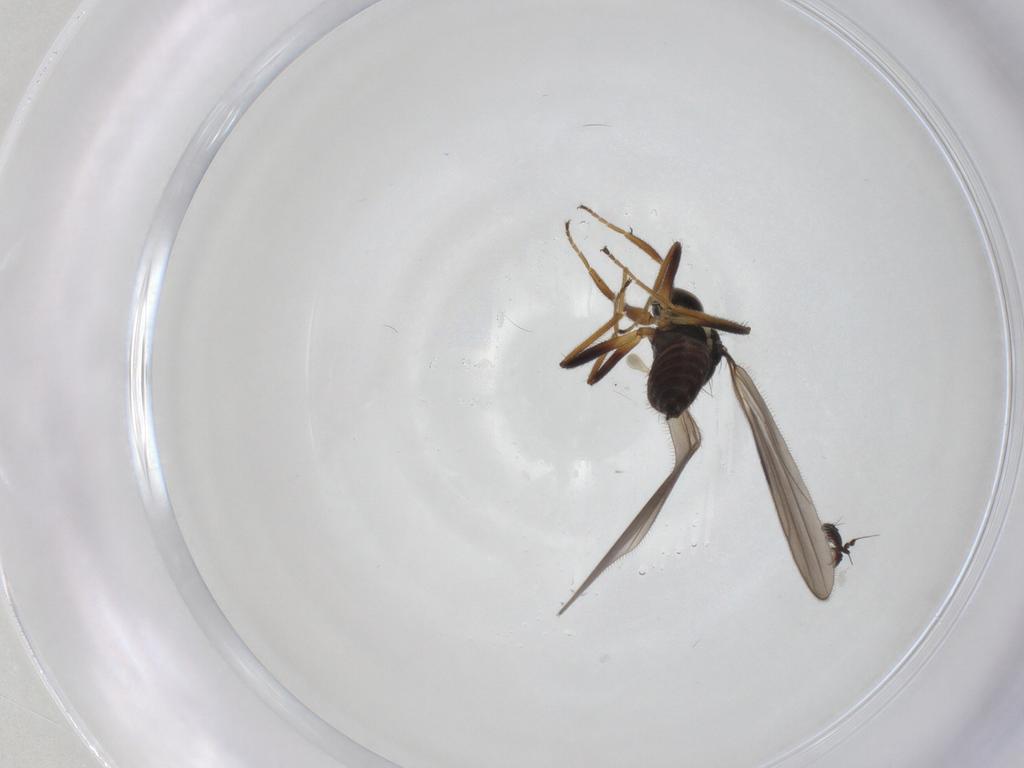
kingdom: Animalia
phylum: Arthropoda
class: Insecta
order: Diptera
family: Hybotidae
